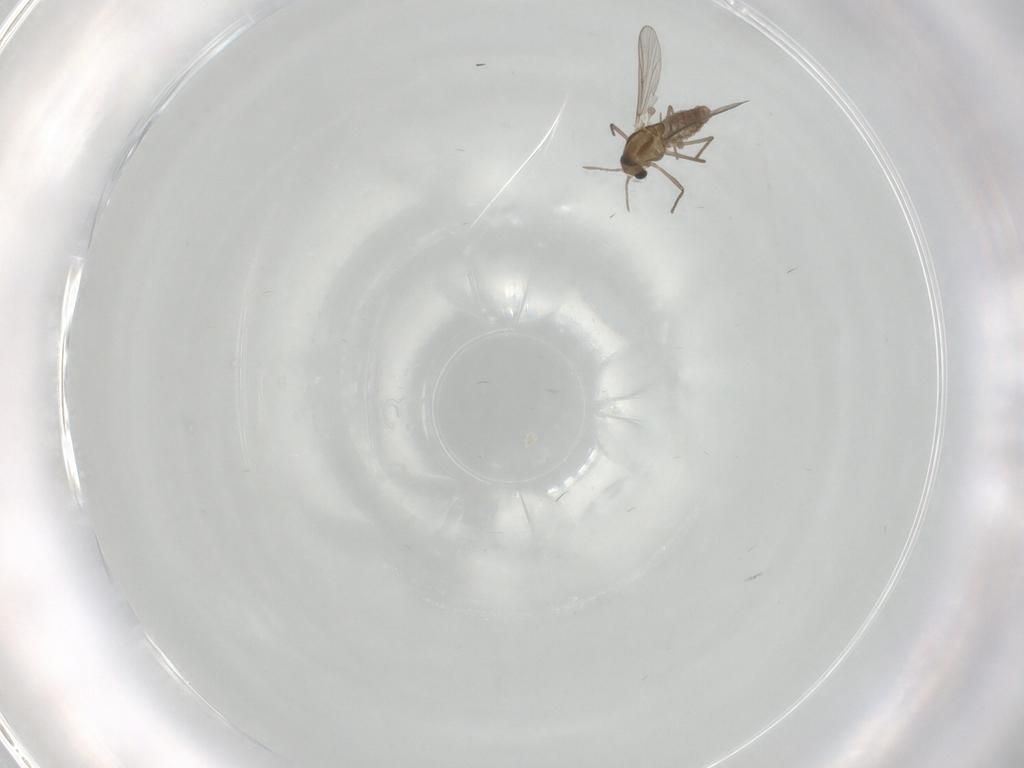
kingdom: Animalia
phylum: Arthropoda
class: Insecta
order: Diptera
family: Chironomidae
